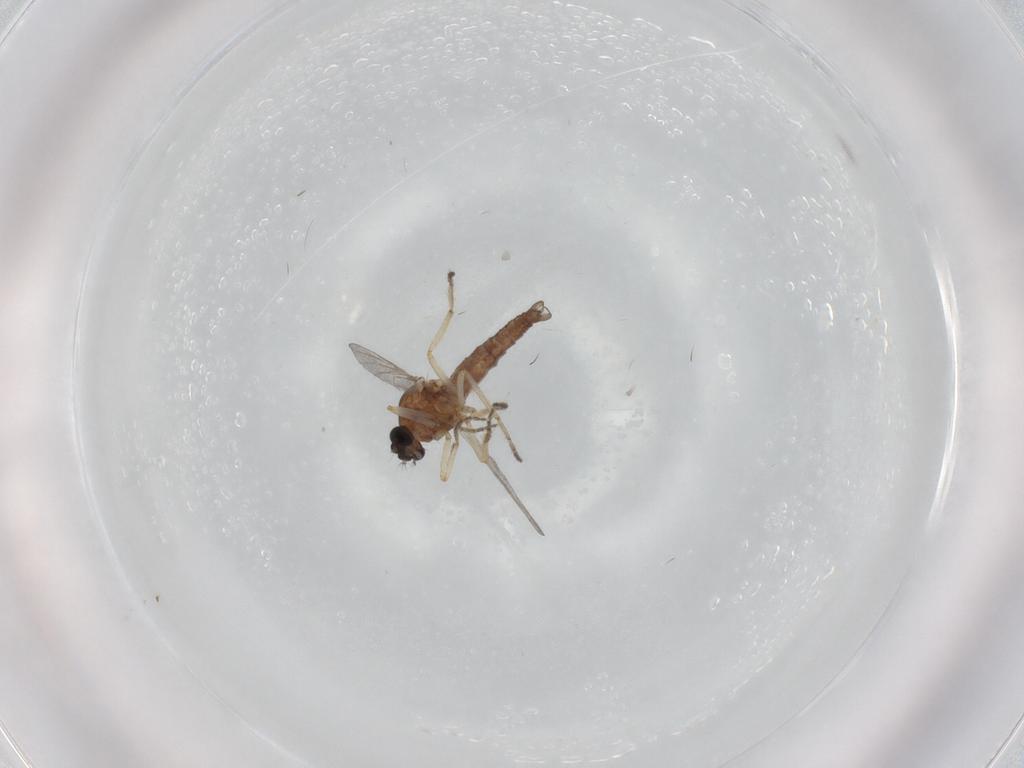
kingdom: Animalia
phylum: Arthropoda
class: Insecta
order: Diptera
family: Ceratopogonidae
